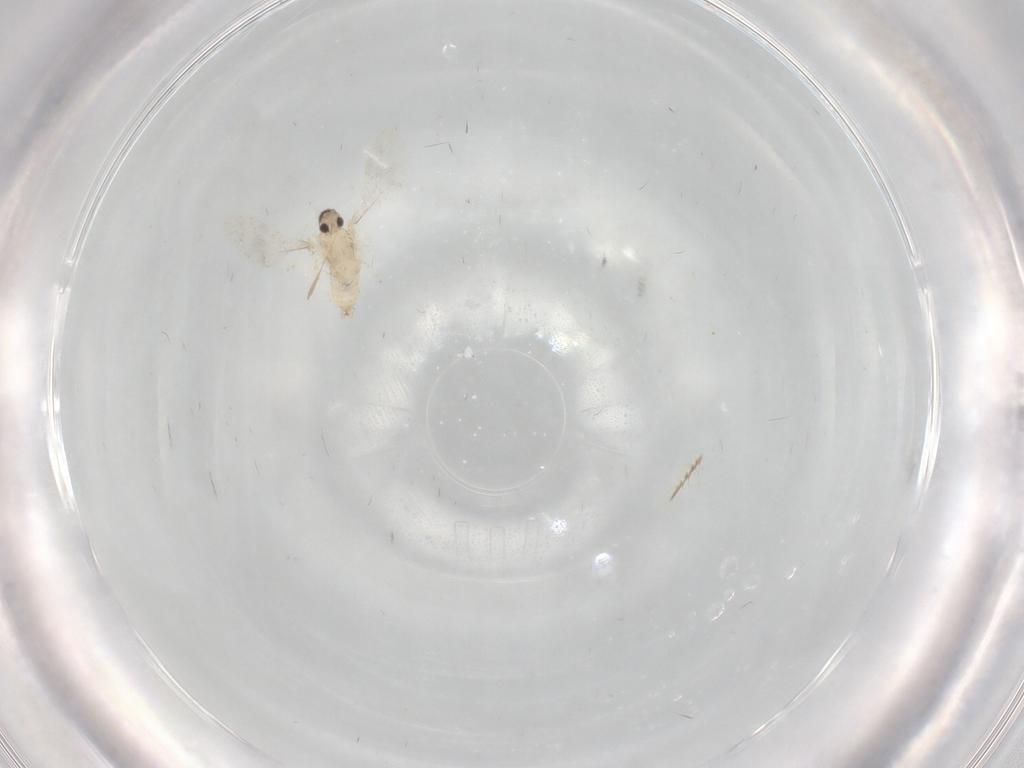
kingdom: Animalia
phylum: Arthropoda
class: Insecta
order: Diptera
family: Cecidomyiidae
